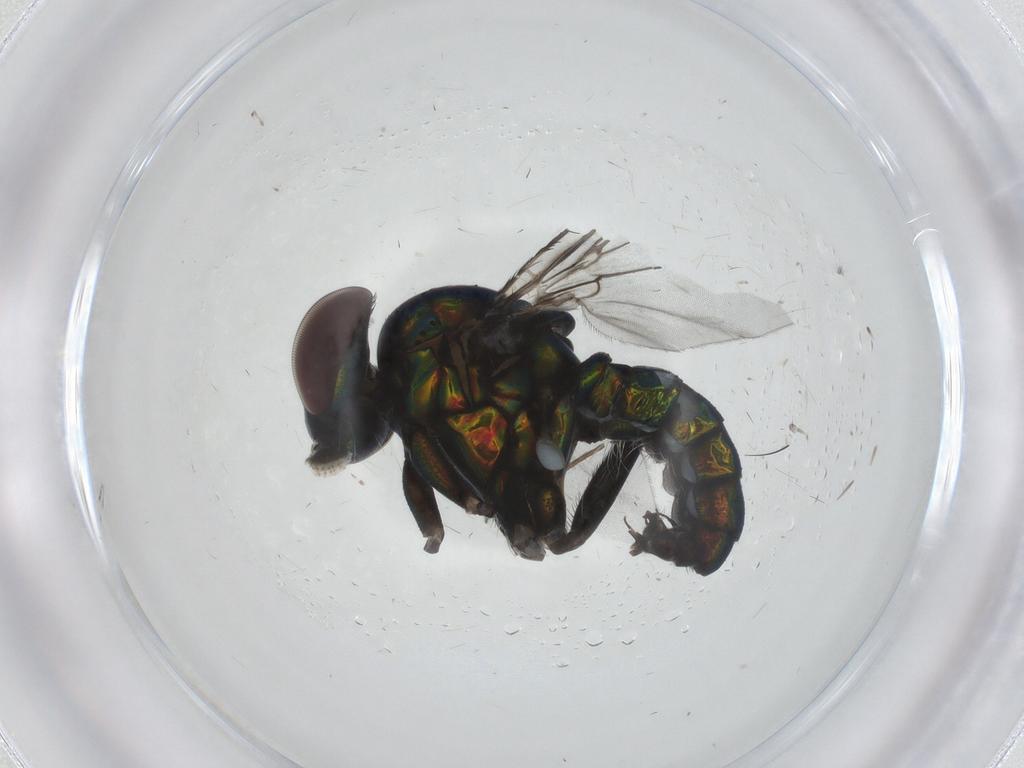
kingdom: Animalia
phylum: Arthropoda
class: Insecta
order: Diptera
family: Dolichopodidae
